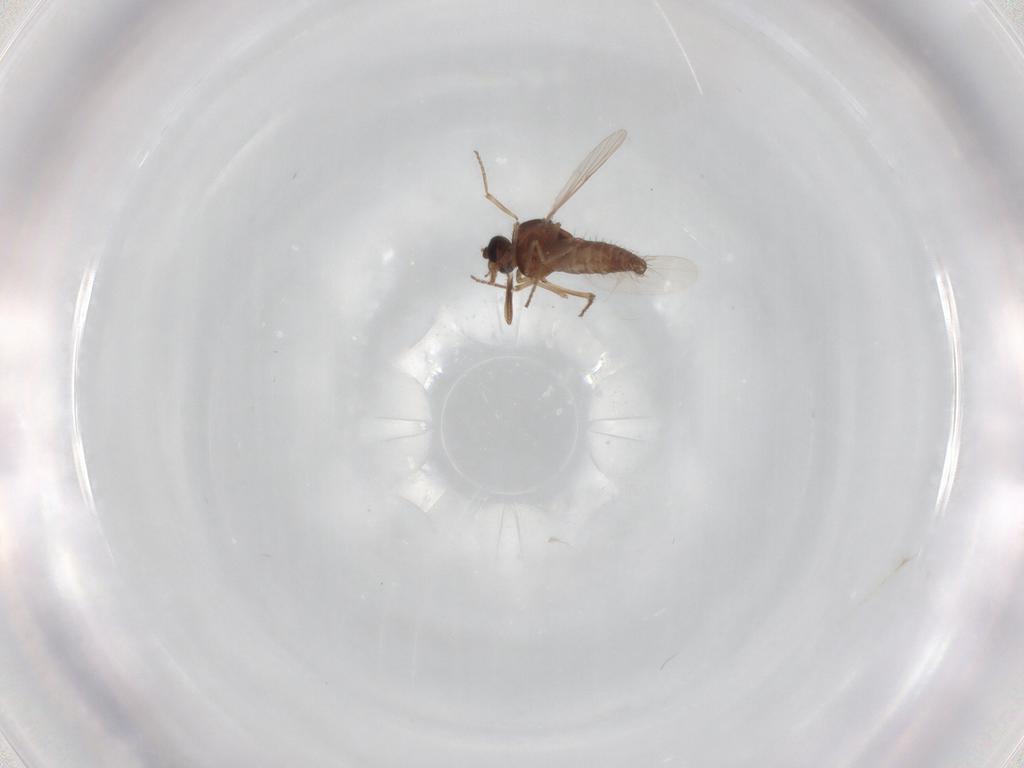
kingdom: Animalia
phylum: Arthropoda
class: Insecta
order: Diptera
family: Ceratopogonidae
